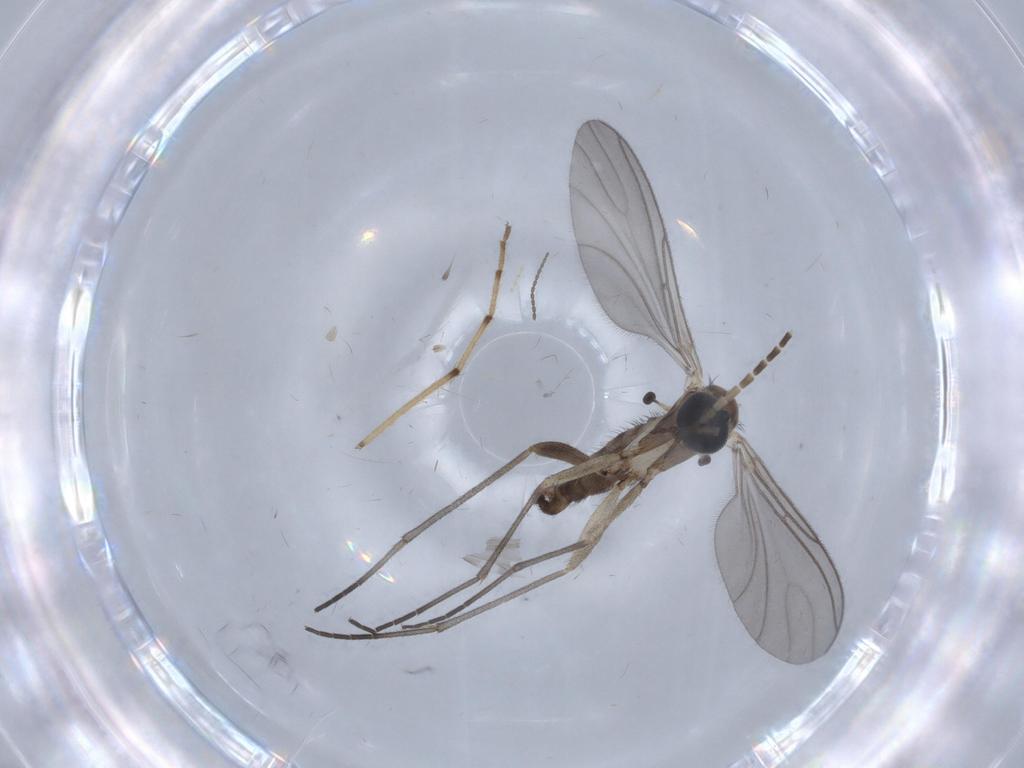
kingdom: Animalia
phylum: Arthropoda
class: Insecta
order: Diptera
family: Sciaridae
